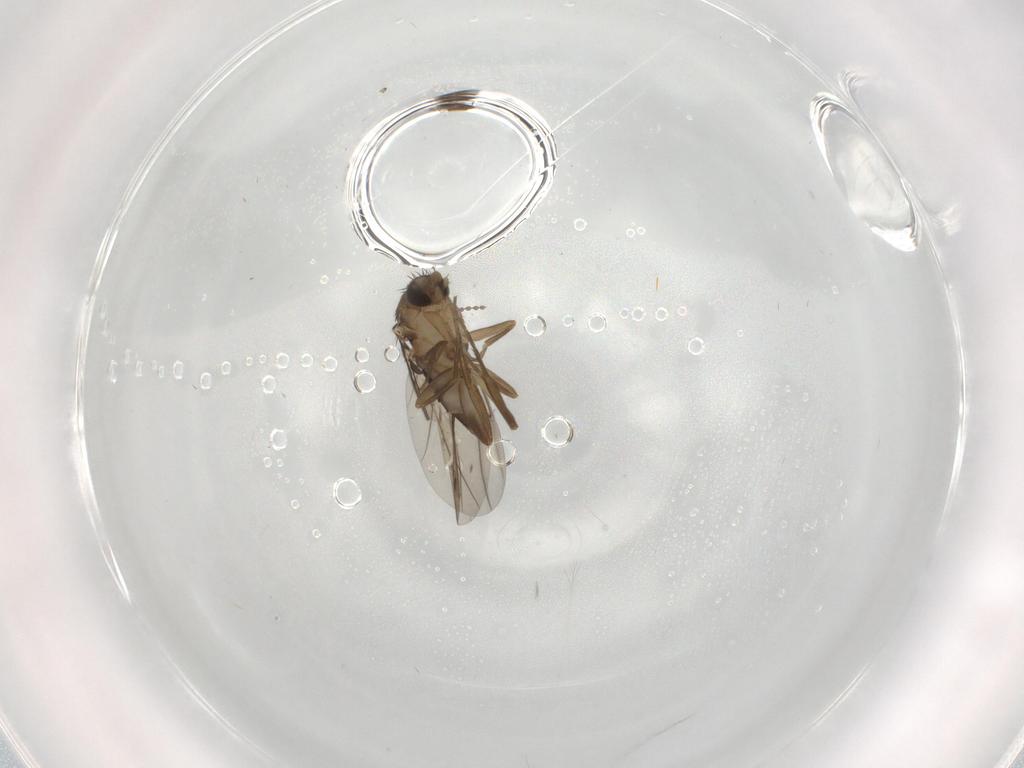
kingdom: Animalia
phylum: Arthropoda
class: Insecta
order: Diptera
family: Phoridae
